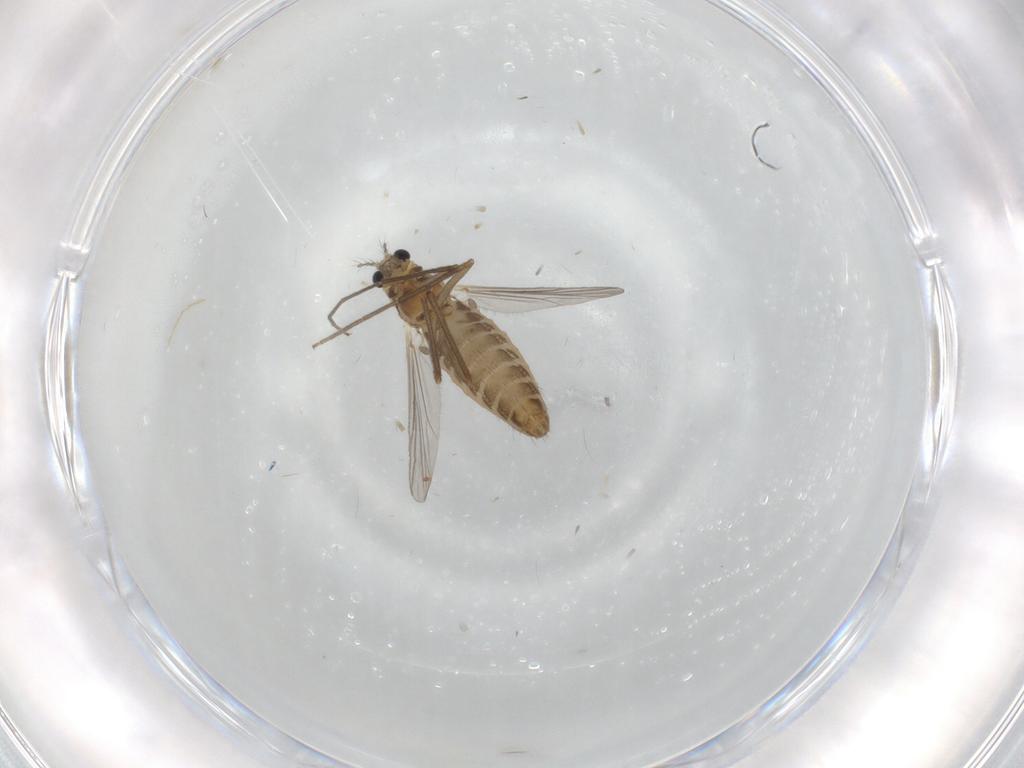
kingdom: Animalia
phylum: Arthropoda
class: Insecta
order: Diptera
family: Chironomidae
